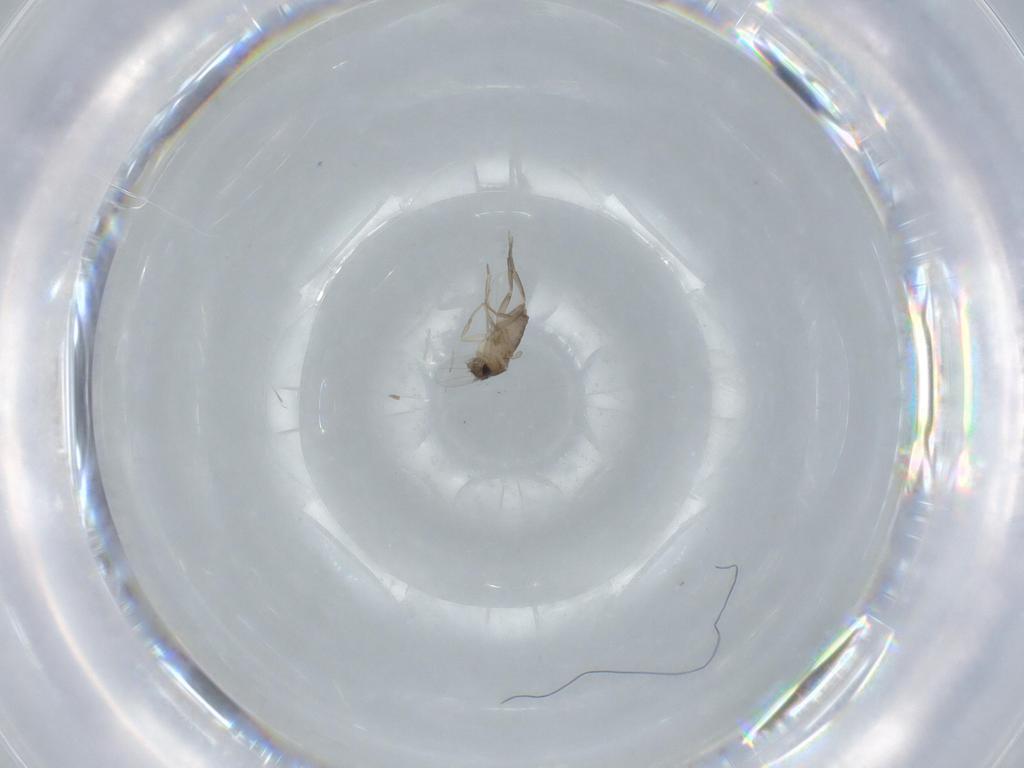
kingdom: Animalia
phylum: Arthropoda
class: Insecta
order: Diptera
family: Phoridae
